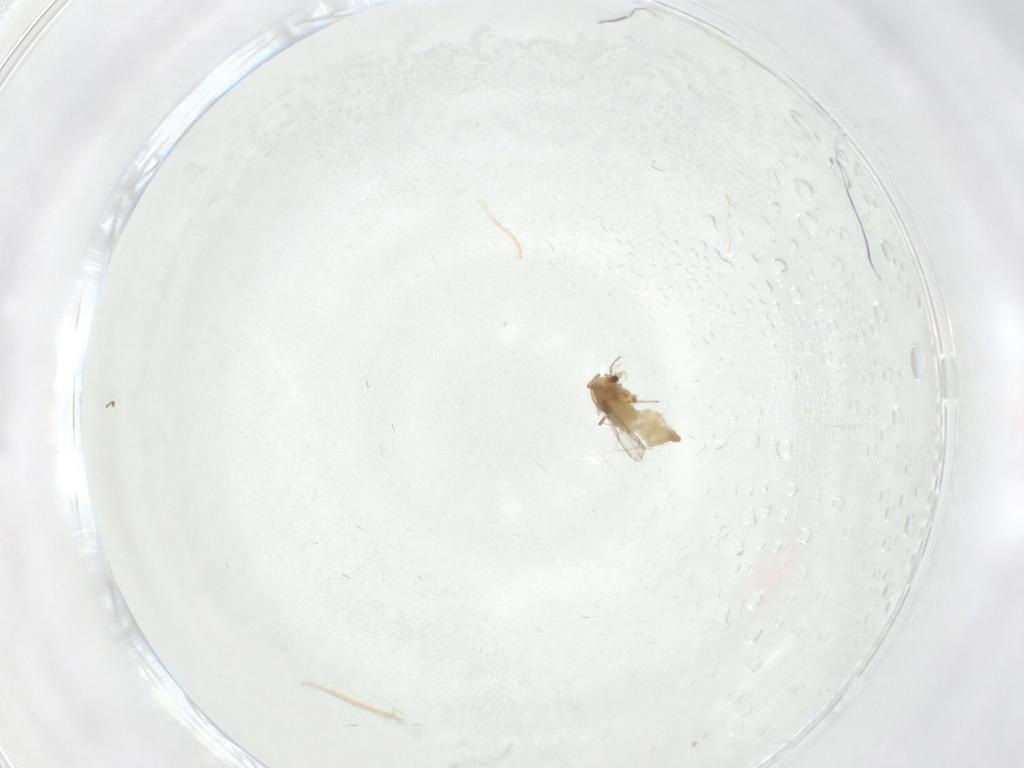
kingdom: Animalia
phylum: Arthropoda
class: Insecta
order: Diptera
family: Chironomidae
